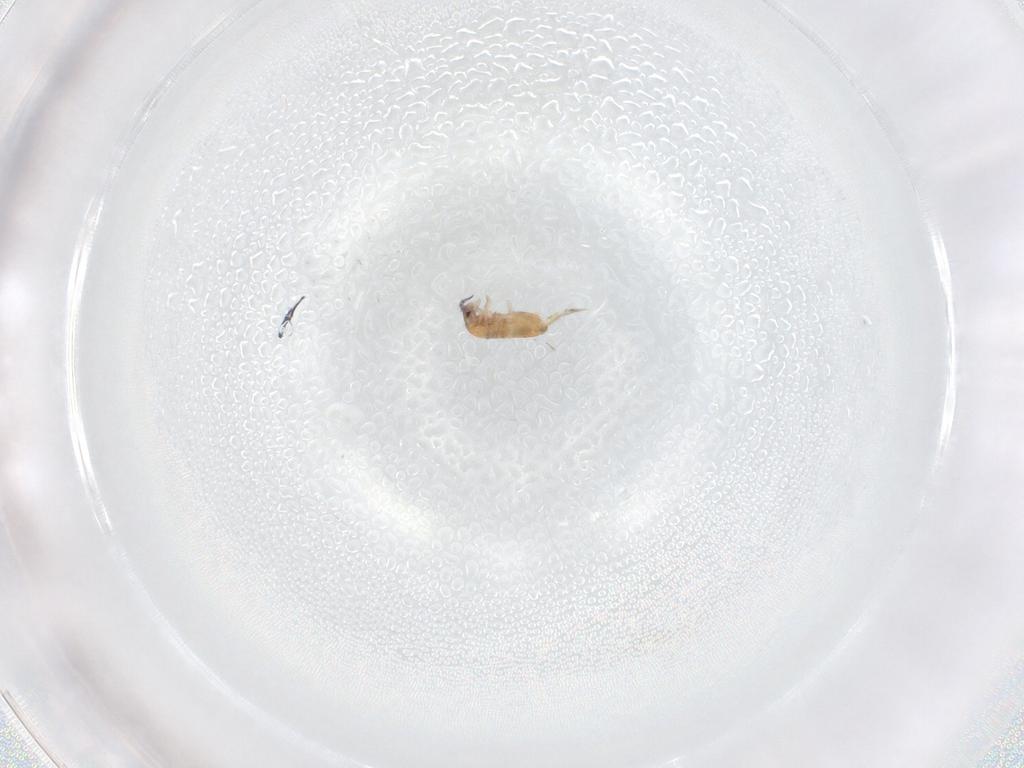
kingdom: Animalia
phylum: Arthropoda
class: Collembola
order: Entomobryomorpha
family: Entomobryidae
